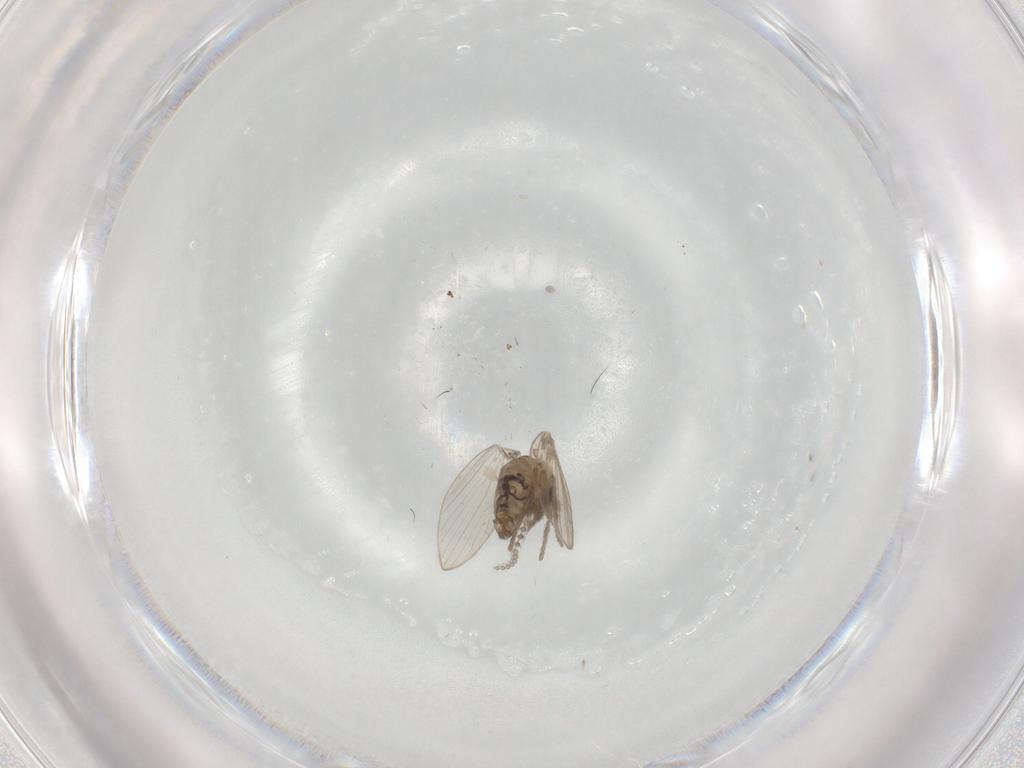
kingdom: Animalia
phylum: Arthropoda
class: Insecta
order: Diptera
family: Psychodidae
